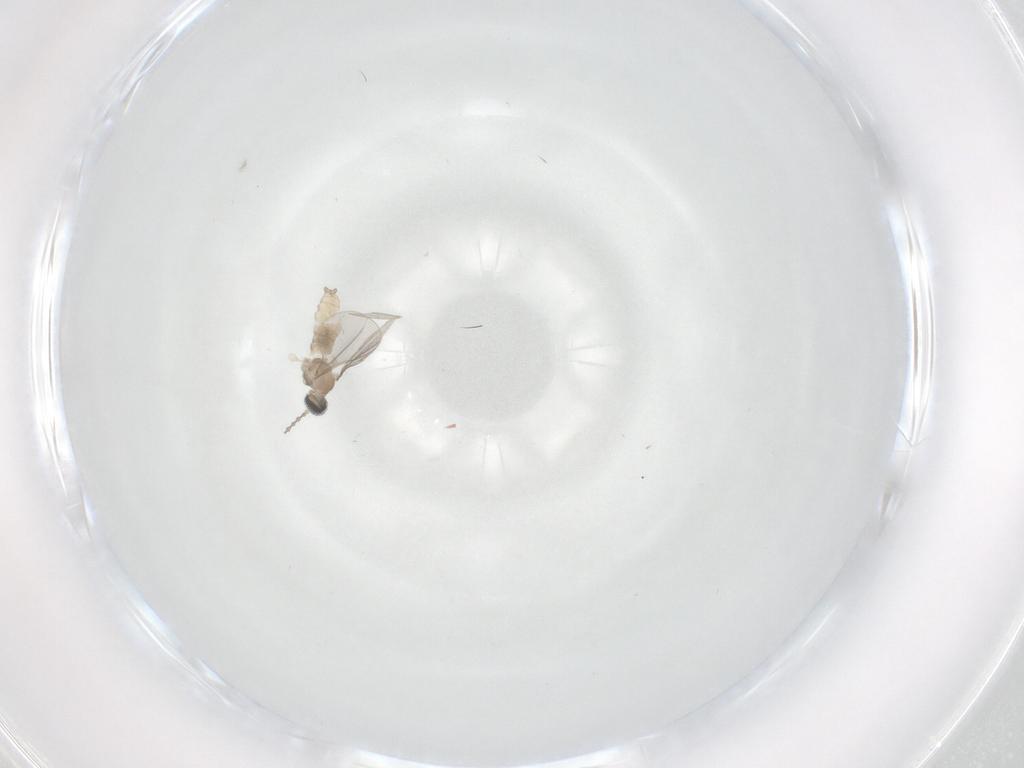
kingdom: Animalia
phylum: Arthropoda
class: Insecta
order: Diptera
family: Cecidomyiidae
